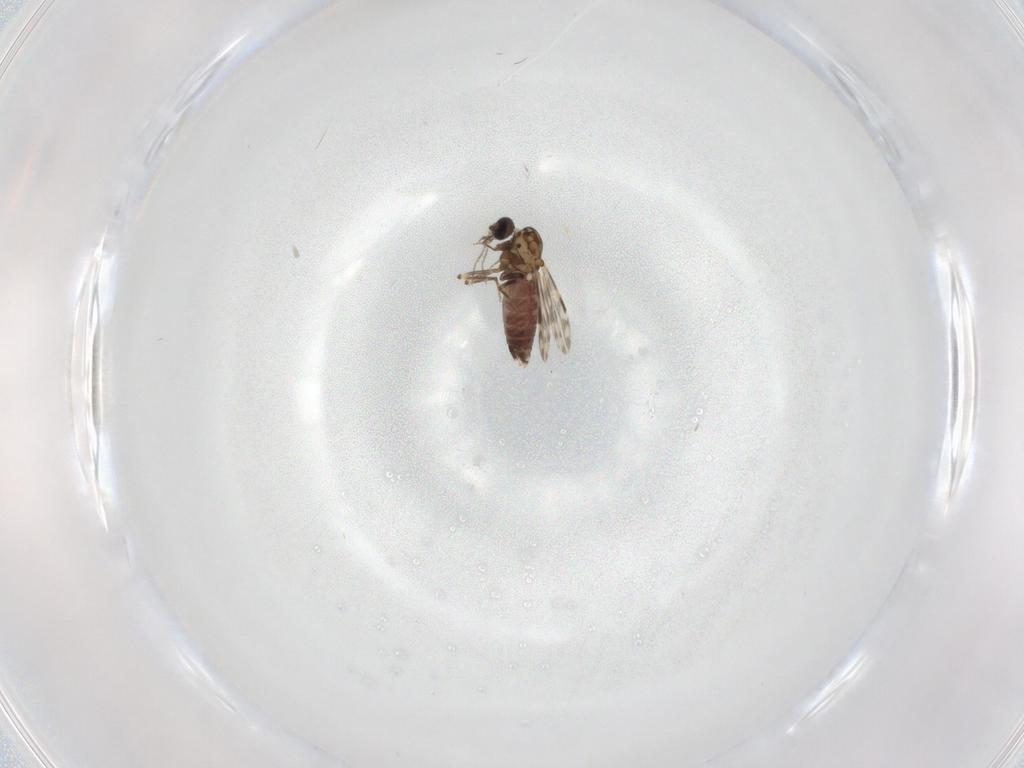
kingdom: Animalia
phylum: Arthropoda
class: Insecta
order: Diptera
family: Ceratopogonidae
